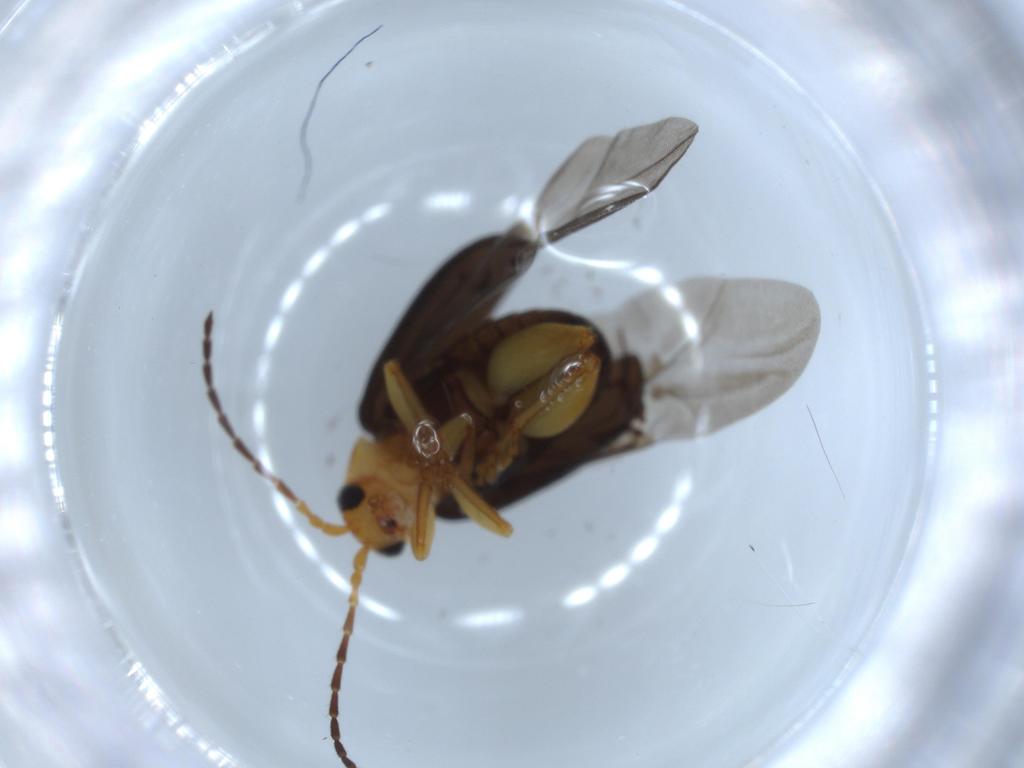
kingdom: Animalia
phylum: Arthropoda
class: Insecta
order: Coleoptera
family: Chrysomelidae
